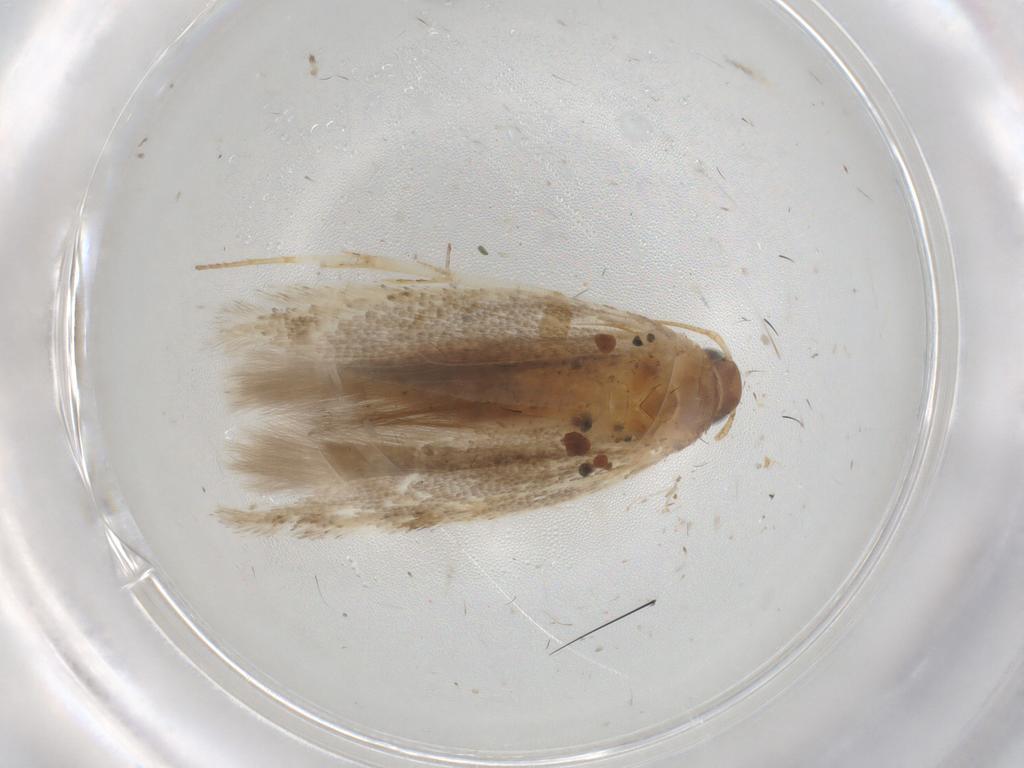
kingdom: Animalia
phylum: Arthropoda
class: Insecta
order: Lepidoptera
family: Gelechiidae
